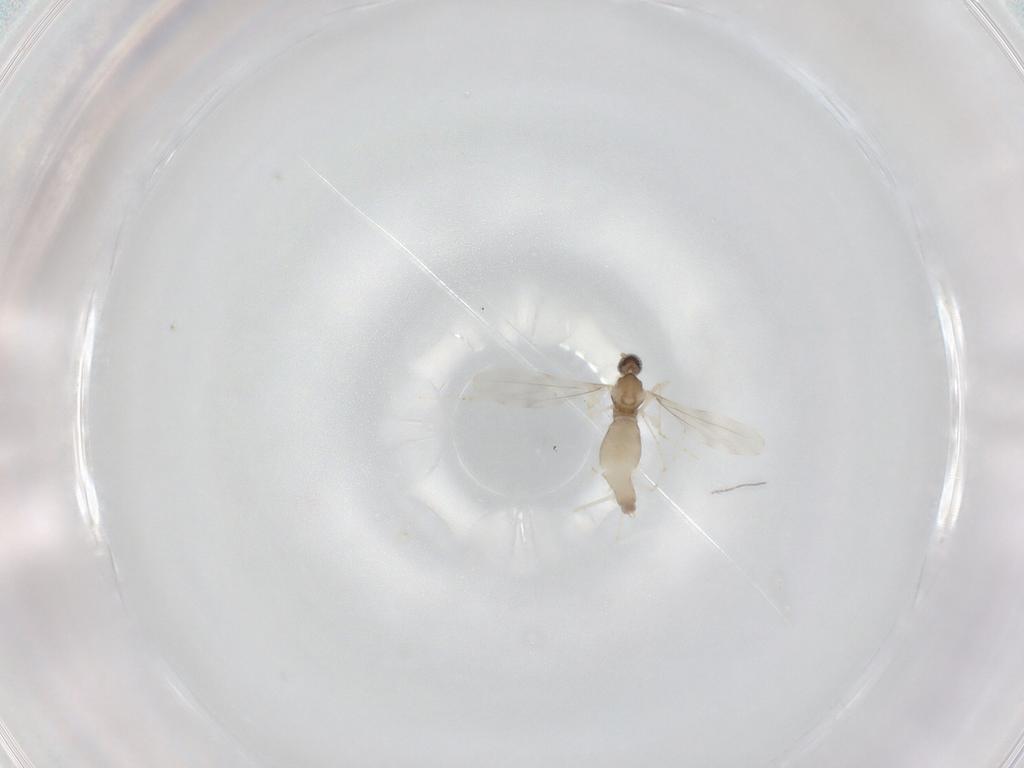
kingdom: Animalia
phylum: Arthropoda
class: Insecta
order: Diptera
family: Cecidomyiidae
